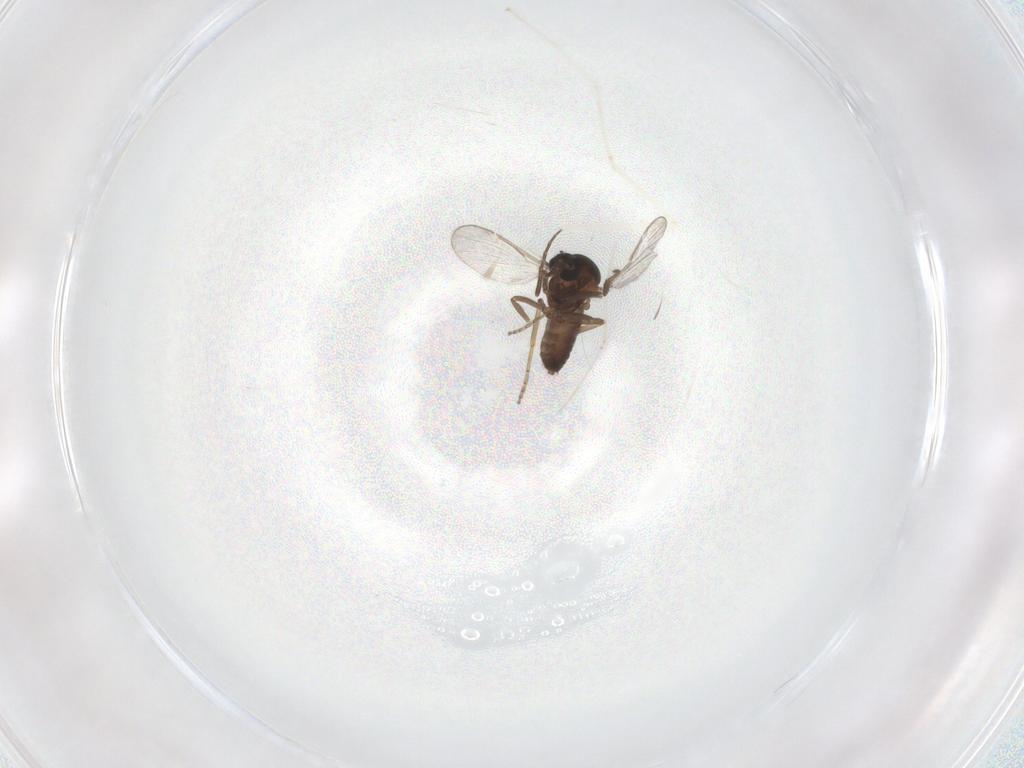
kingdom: Animalia
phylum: Arthropoda
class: Insecta
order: Diptera
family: Cecidomyiidae
